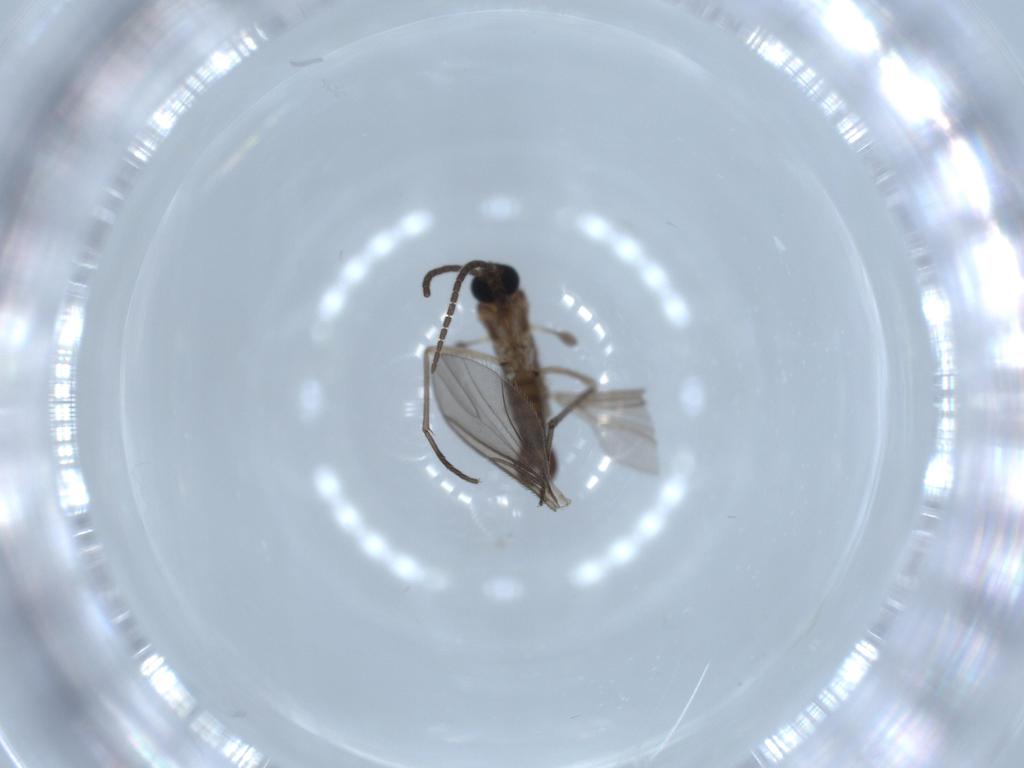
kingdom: Animalia
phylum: Arthropoda
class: Insecta
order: Diptera
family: Sciaridae
